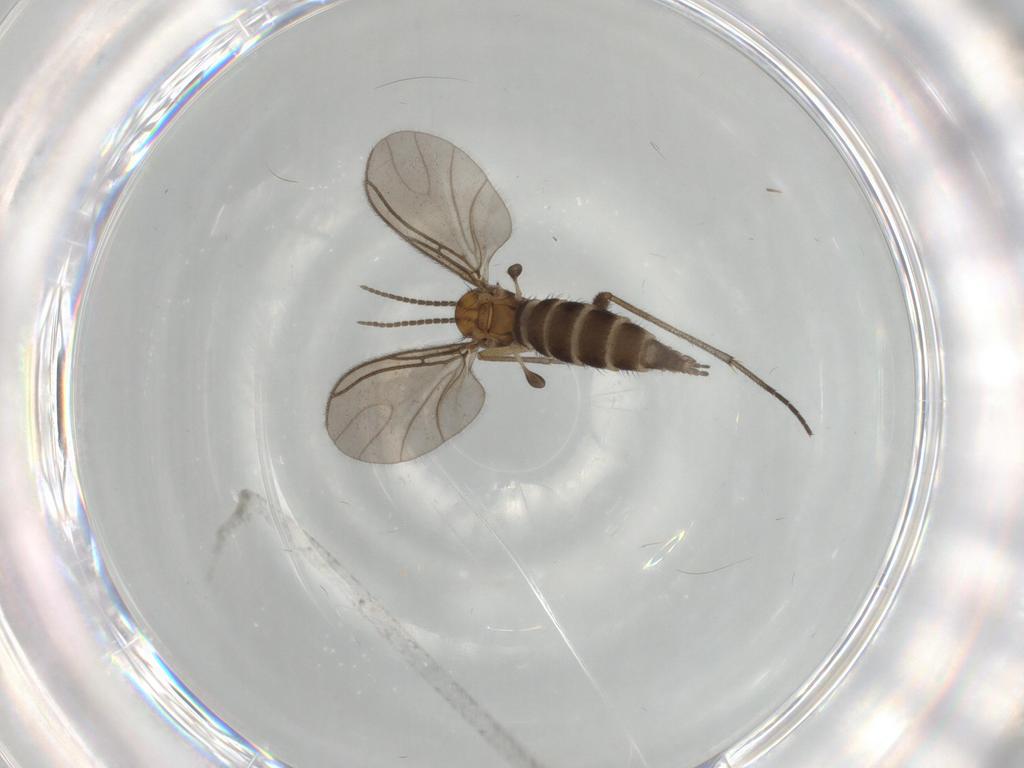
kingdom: Animalia
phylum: Arthropoda
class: Insecta
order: Diptera
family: Sciaridae
